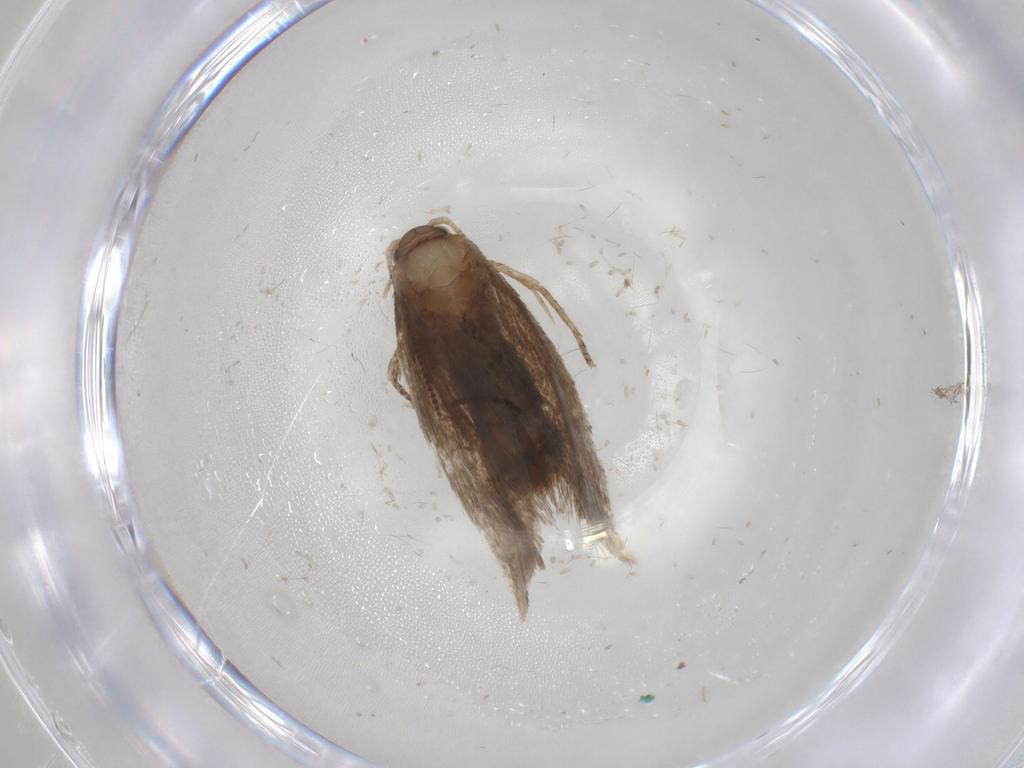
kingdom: Animalia
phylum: Arthropoda
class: Insecta
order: Lepidoptera
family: Dryadaulidae
